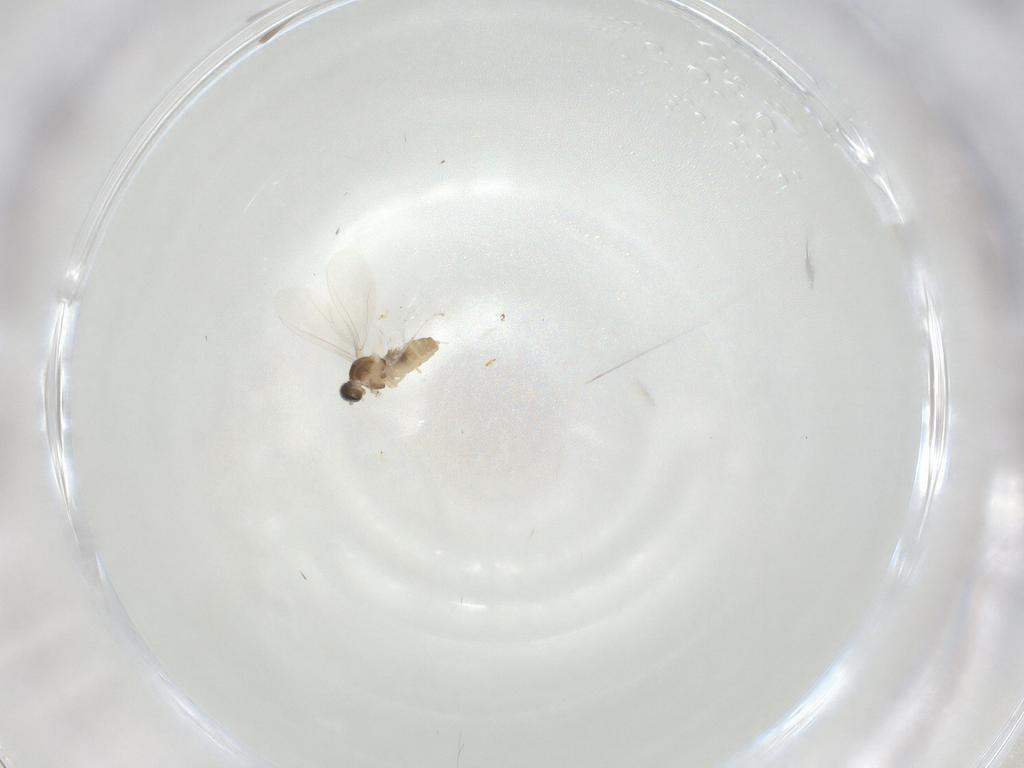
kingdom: Animalia
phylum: Arthropoda
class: Insecta
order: Diptera
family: Cecidomyiidae
